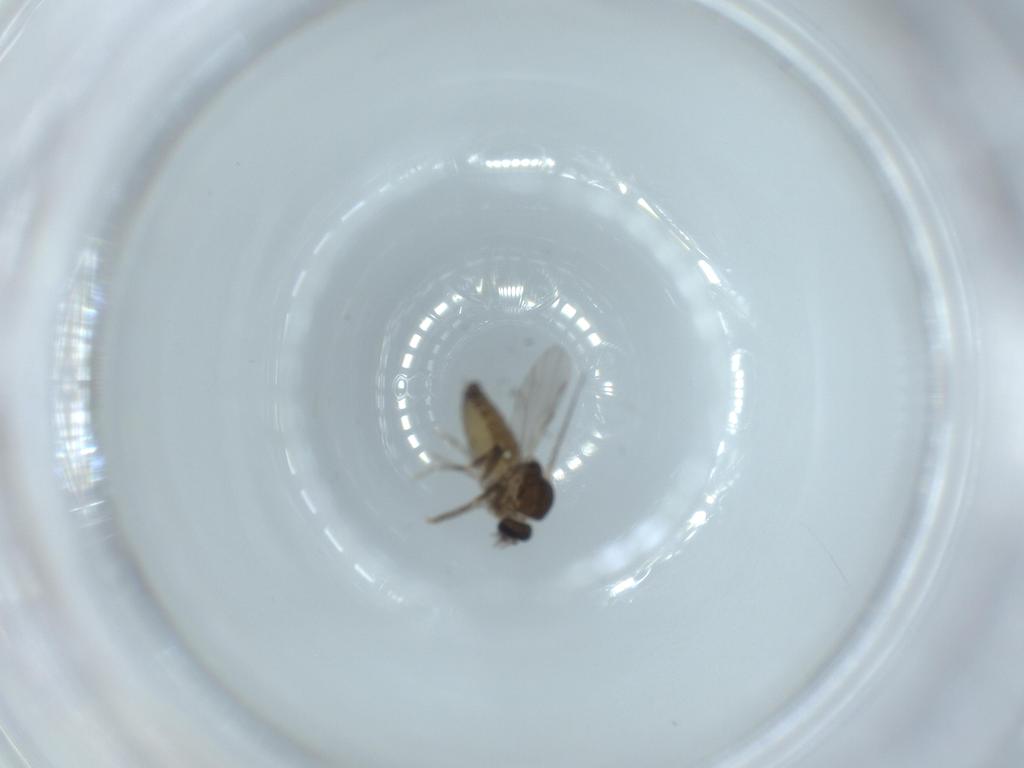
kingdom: Animalia
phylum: Arthropoda
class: Insecta
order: Diptera
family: Ceratopogonidae
